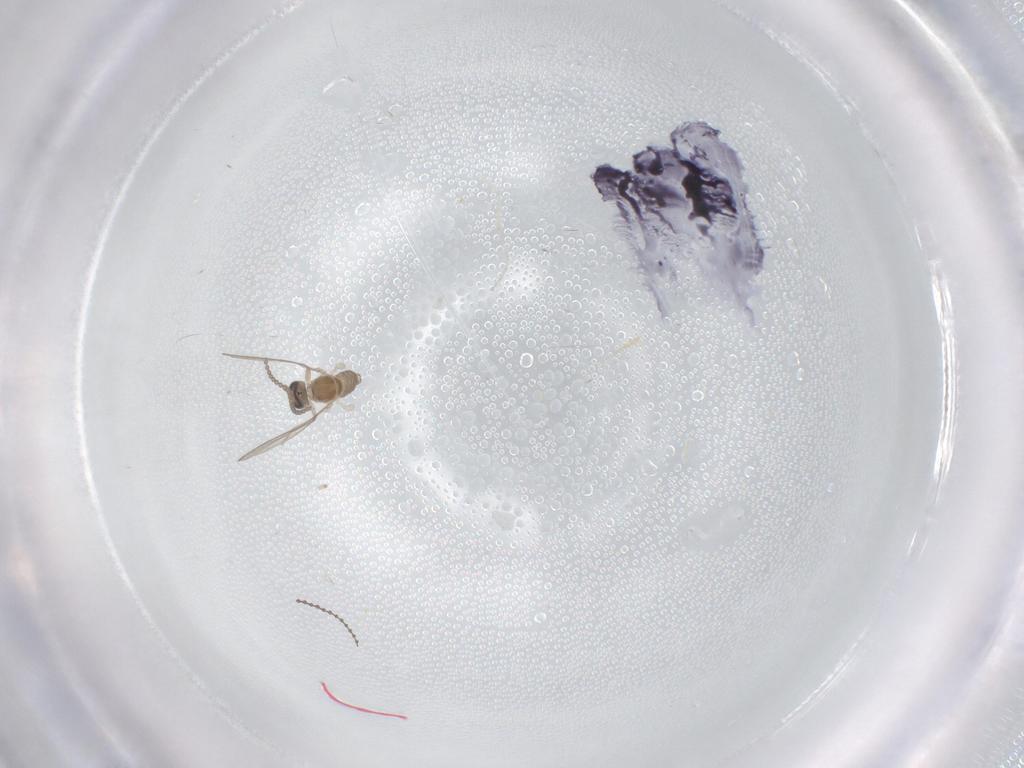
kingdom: Animalia
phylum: Arthropoda
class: Insecta
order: Diptera
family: Cecidomyiidae
